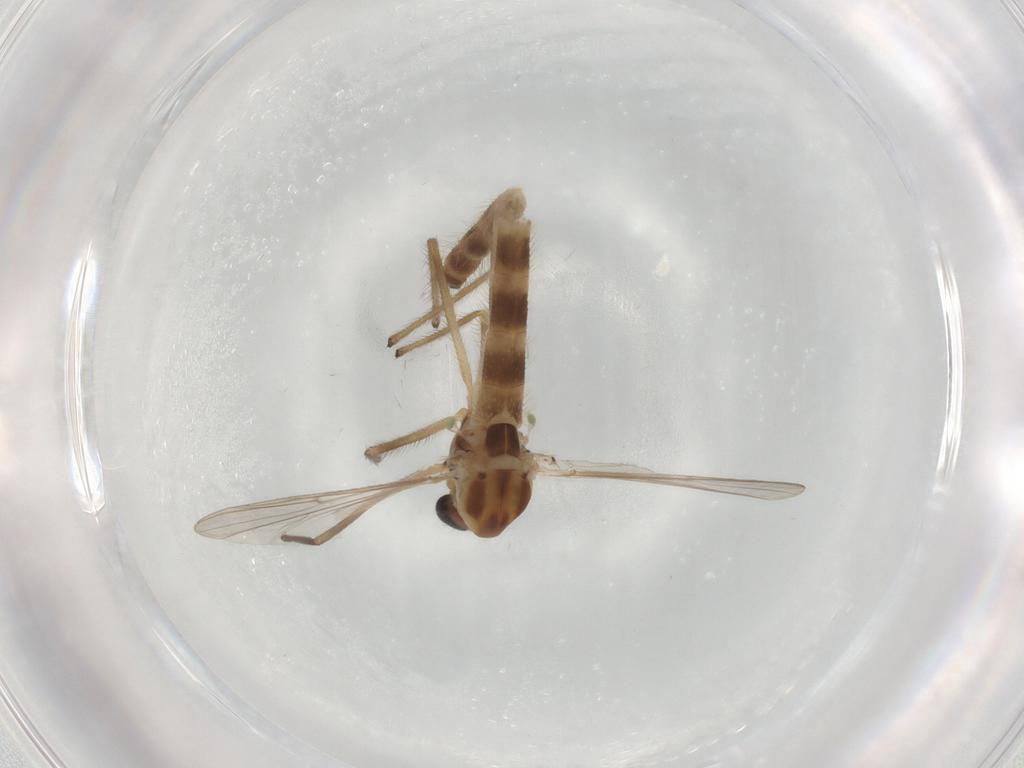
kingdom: Animalia
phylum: Arthropoda
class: Insecta
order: Diptera
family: Chironomidae
